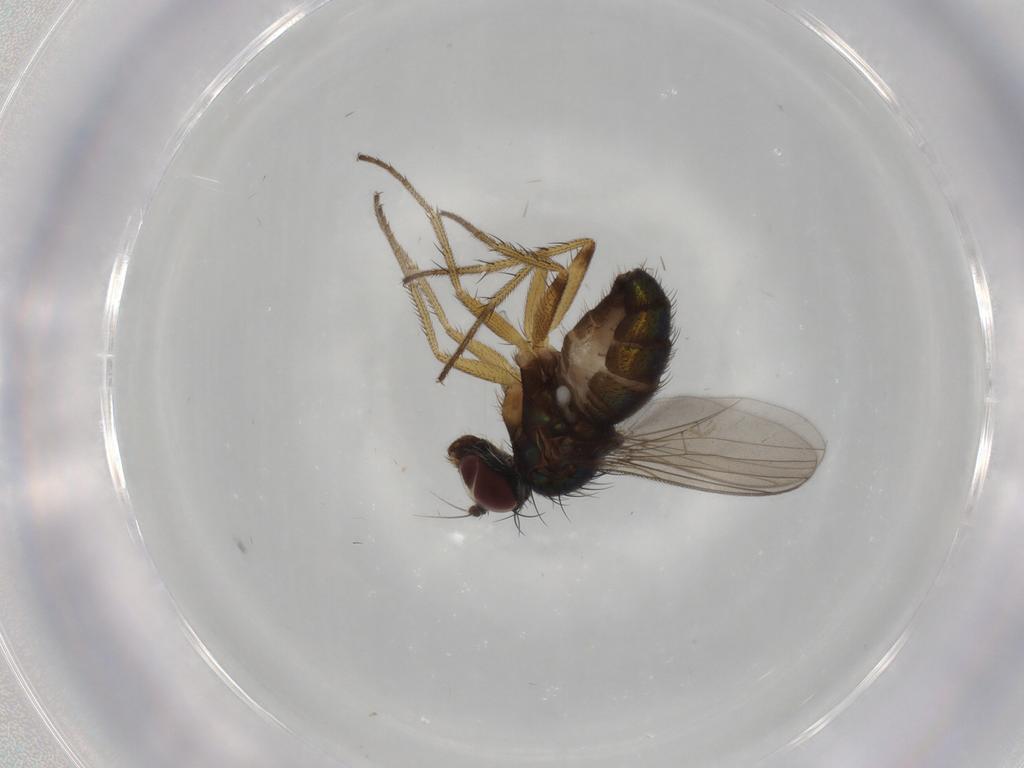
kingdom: Animalia
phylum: Arthropoda
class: Insecta
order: Diptera
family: Dolichopodidae
